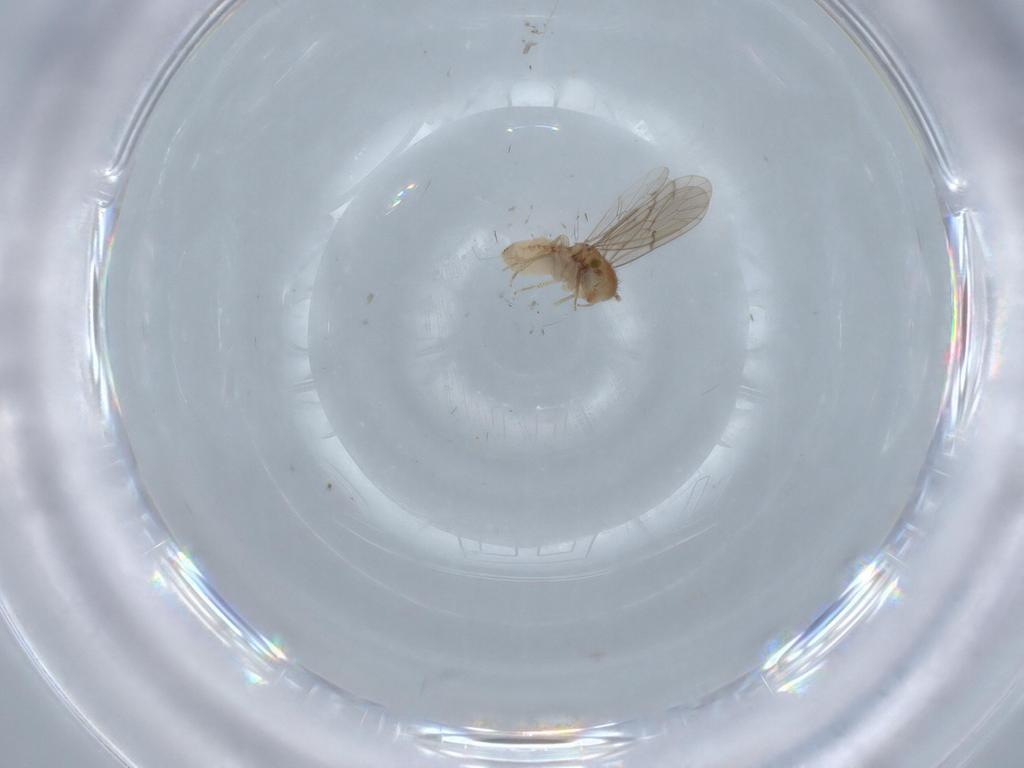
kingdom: Animalia
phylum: Arthropoda
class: Insecta
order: Psocodea
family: Ectopsocidae
